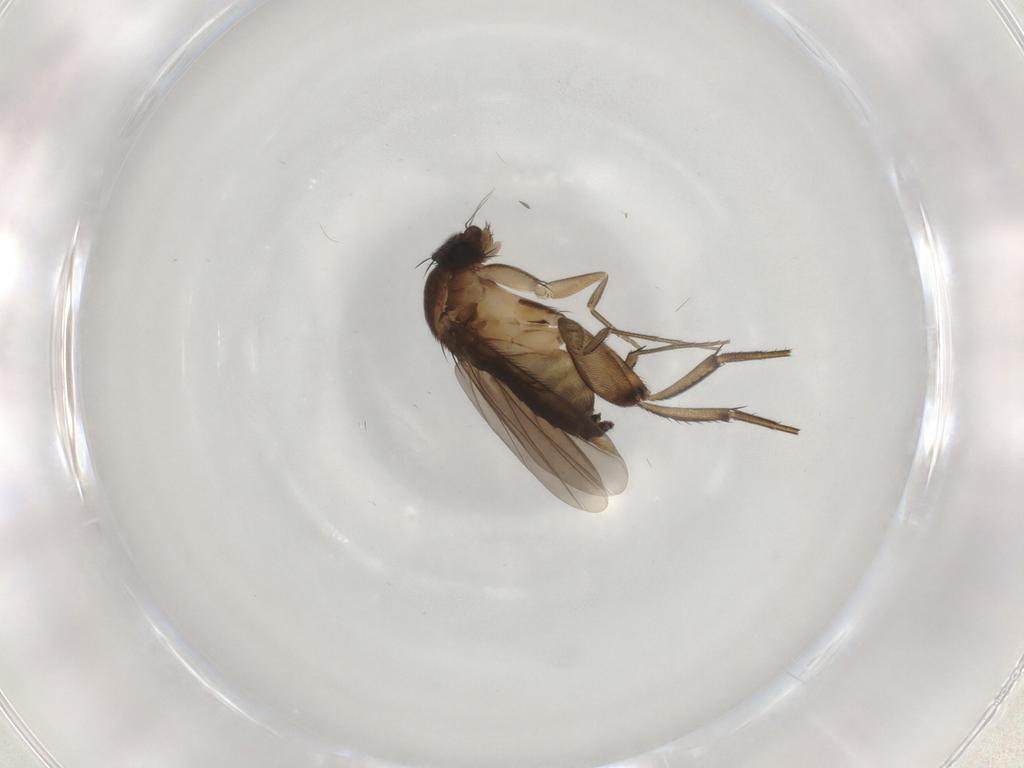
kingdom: Animalia
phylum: Arthropoda
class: Insecta
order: Diptera
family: Phoridae
